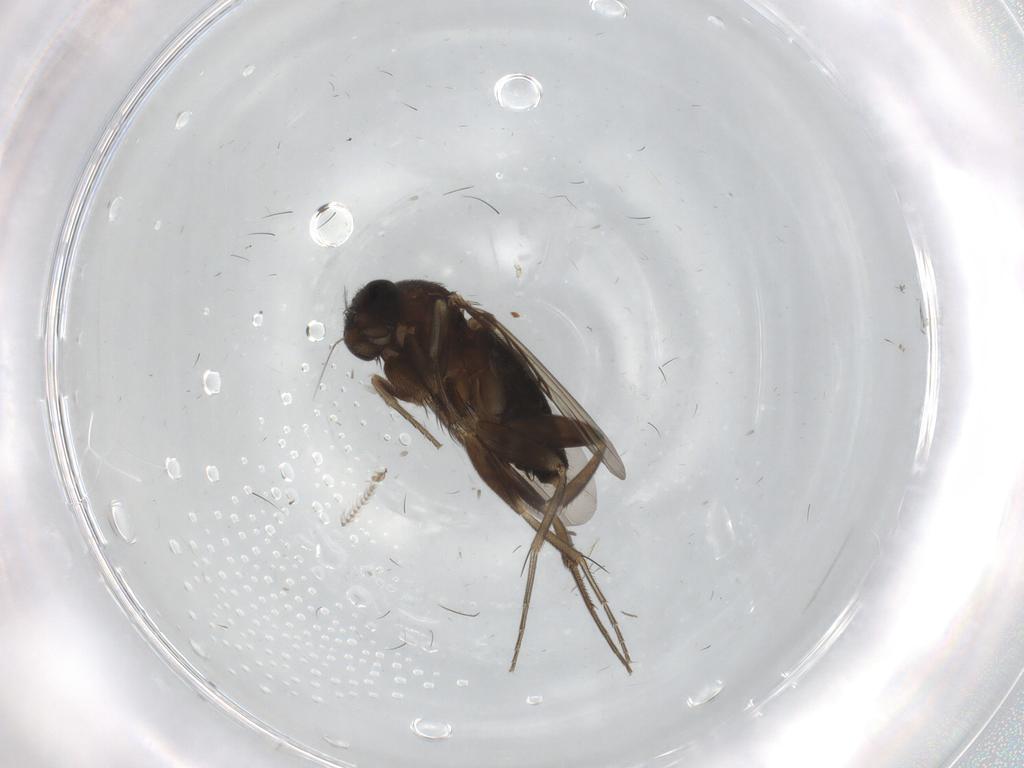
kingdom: Animalia
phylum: Arthropoda
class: Insecta
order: Diptera
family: Phoridae
